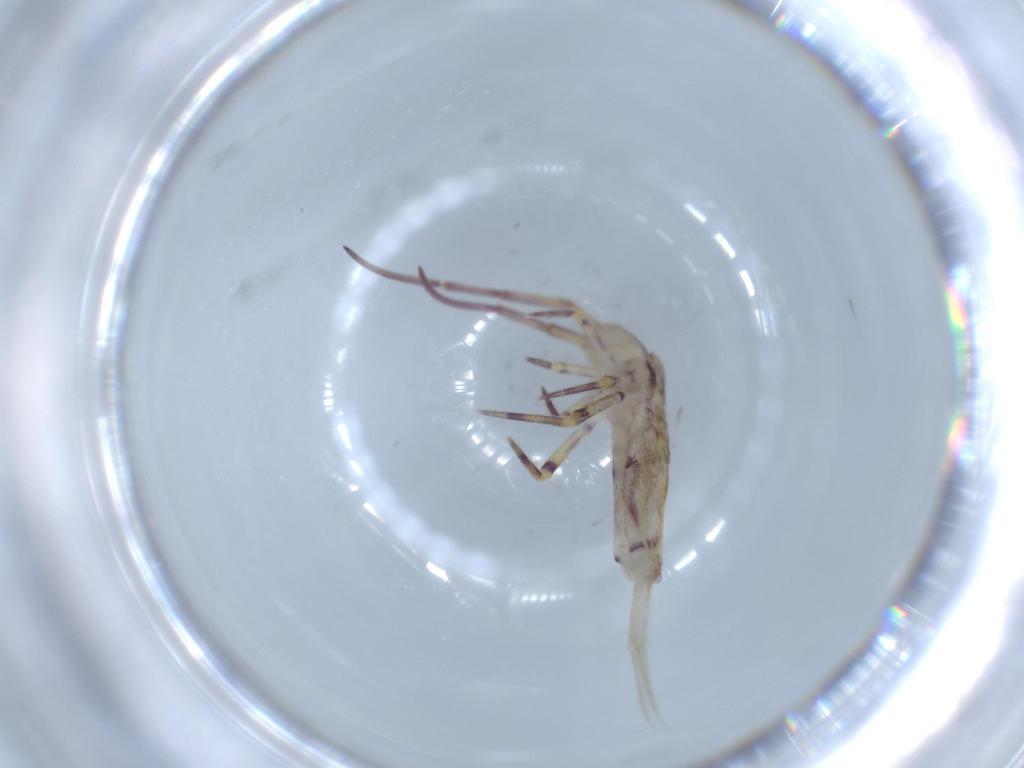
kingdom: Animalia
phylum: Arthropoda
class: Collembola
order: Entomobryomorpha
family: Entomobryidae
